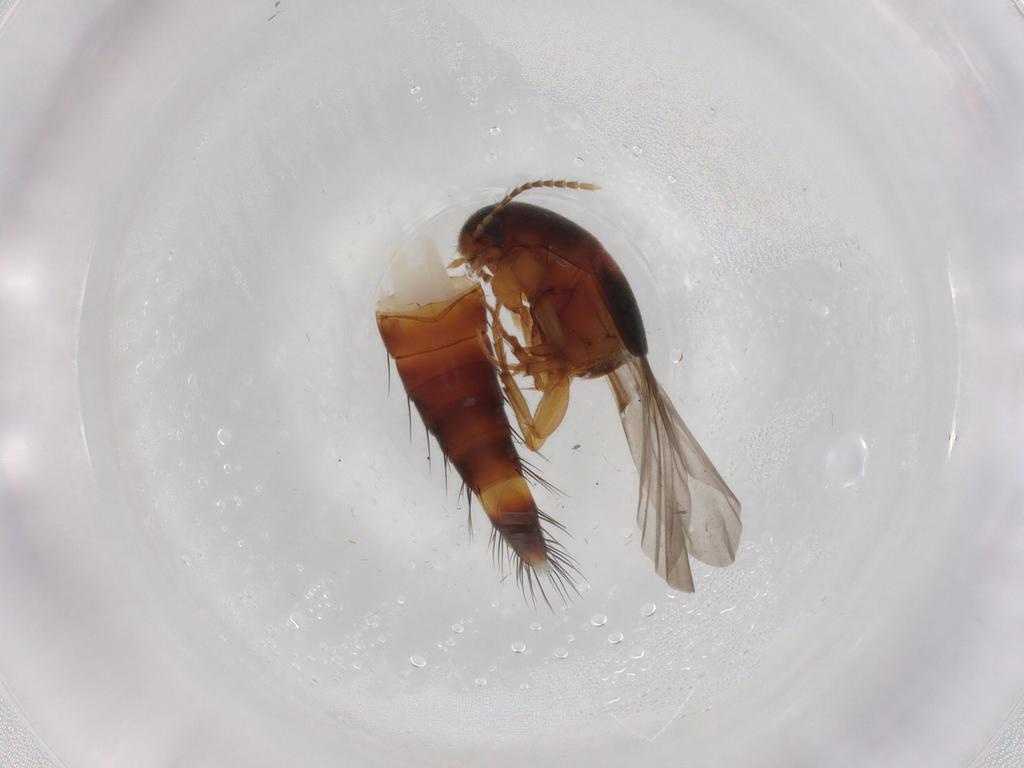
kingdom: Animalia
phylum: Arthropoda
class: Insecta
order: Coleoptera
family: Staphylinidae
